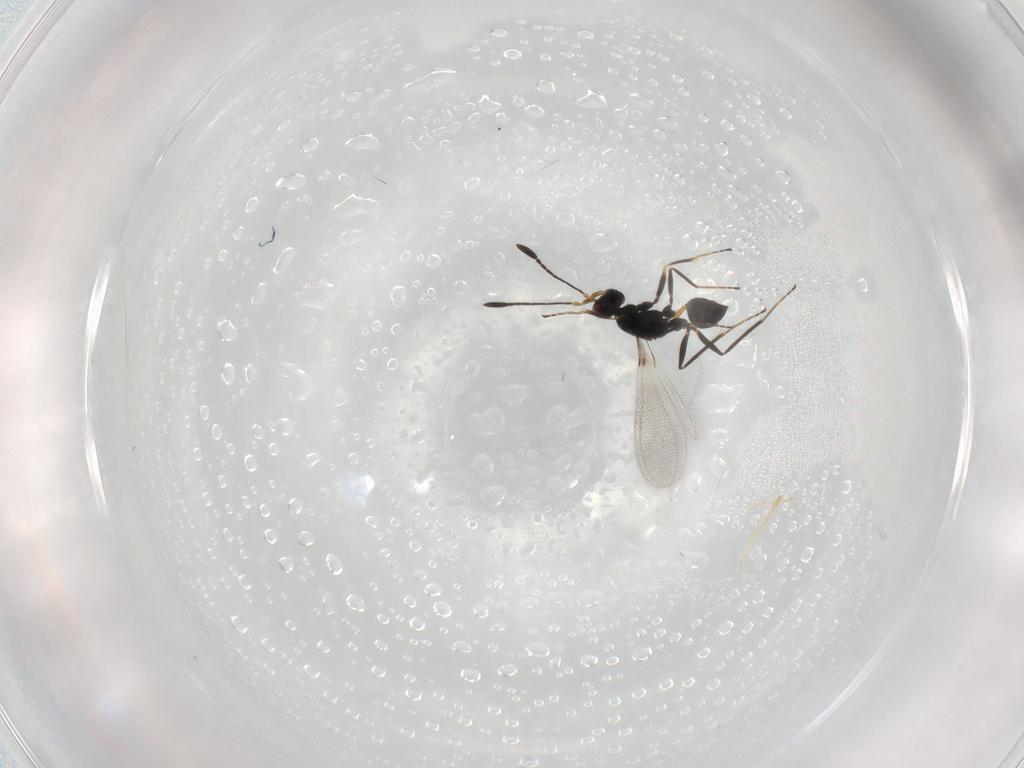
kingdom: Animalia
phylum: Arthropoda
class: Insecta
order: Hymenoptera
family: Mymaridae
